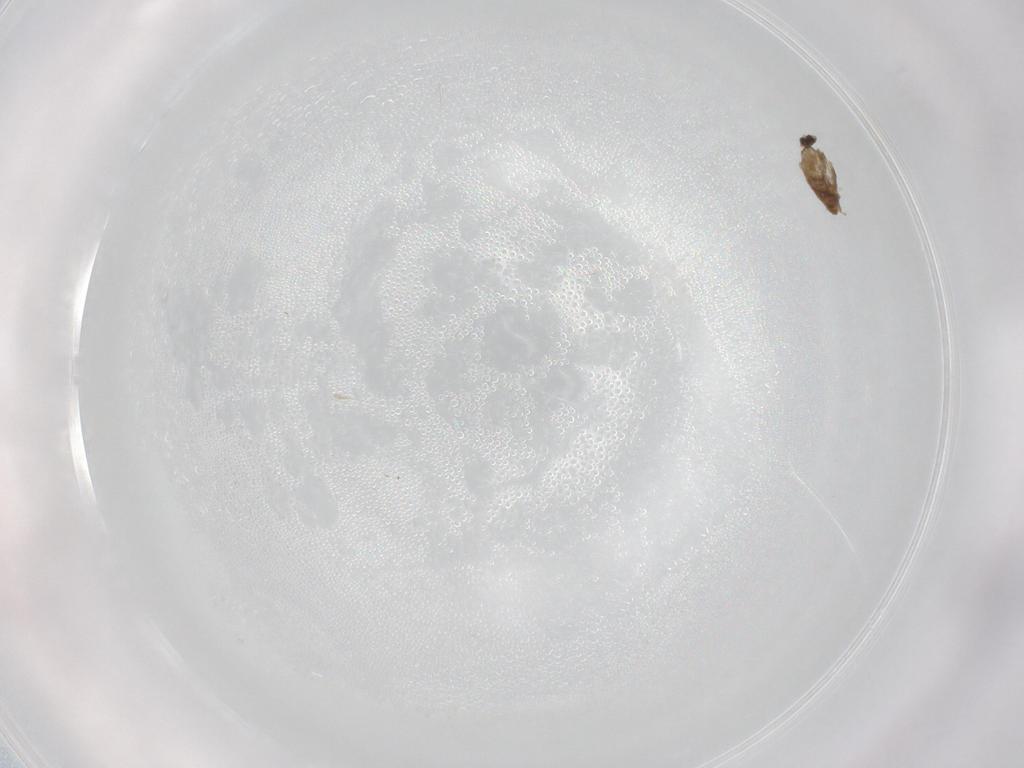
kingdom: Animalia
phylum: Arthropoda
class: Insecta
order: Diptera
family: Cecidomyiidae
